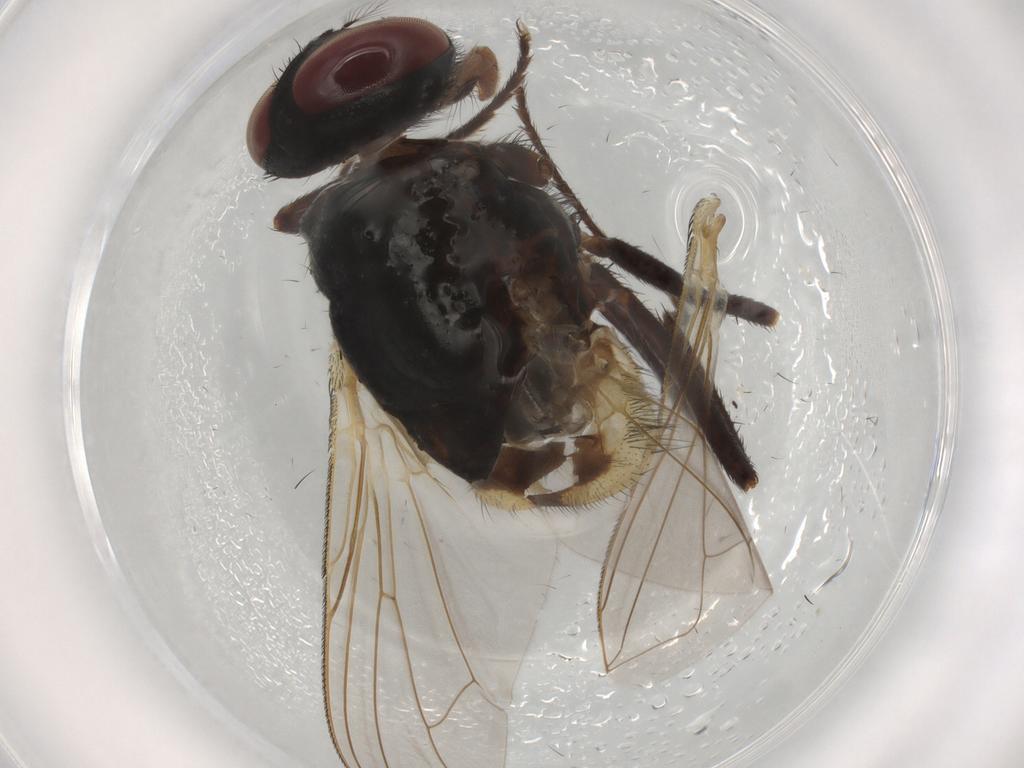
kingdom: Animalia
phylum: Arthropoda
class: Insecta
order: Diptera
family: Muscidae
